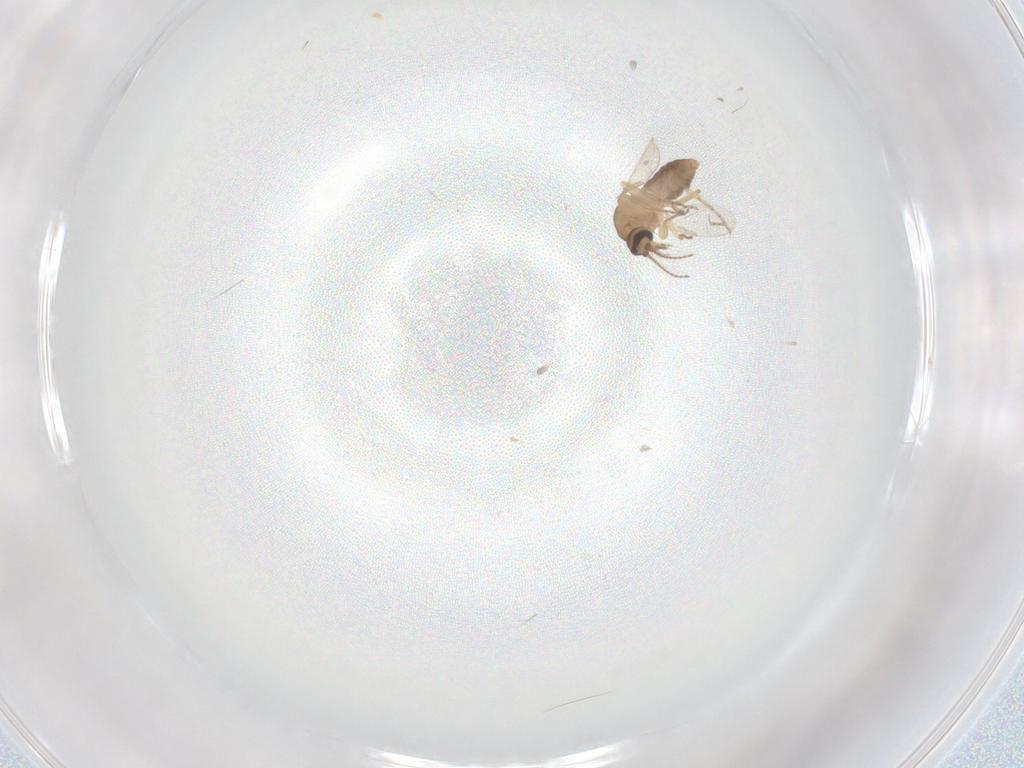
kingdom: Animalia
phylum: Arthropoda
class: Insecta
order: Diptera
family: Ceratopogonidae
